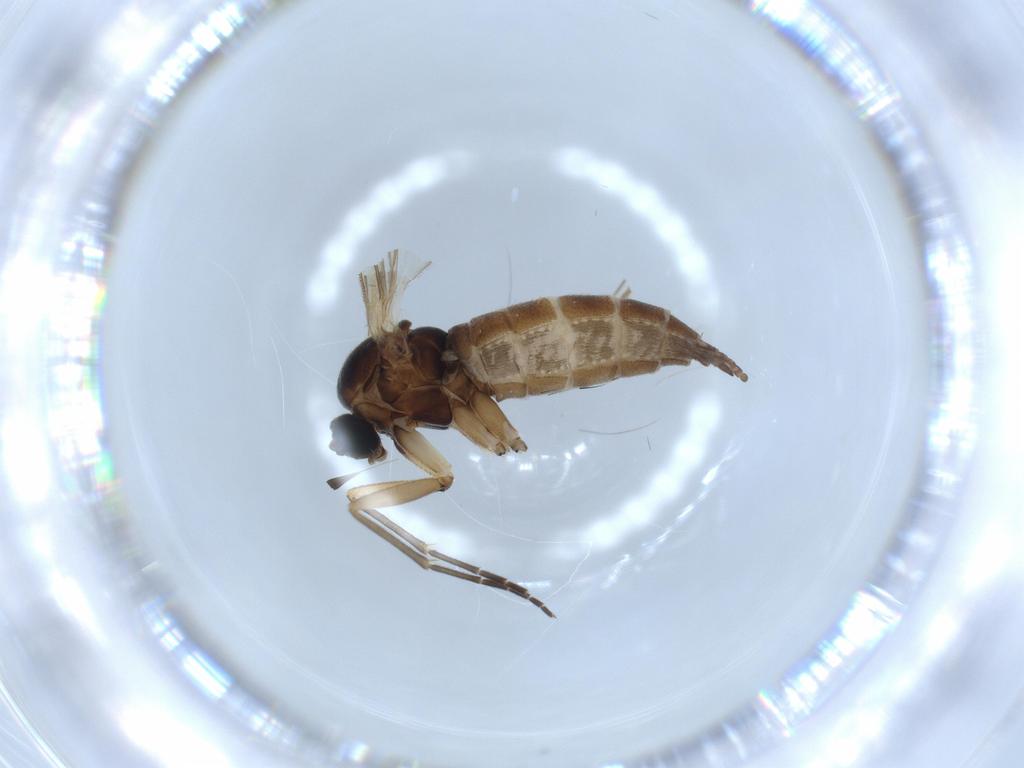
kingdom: Animalia
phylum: Arthropoda
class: Insecta
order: Diptera
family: Sciaridae
